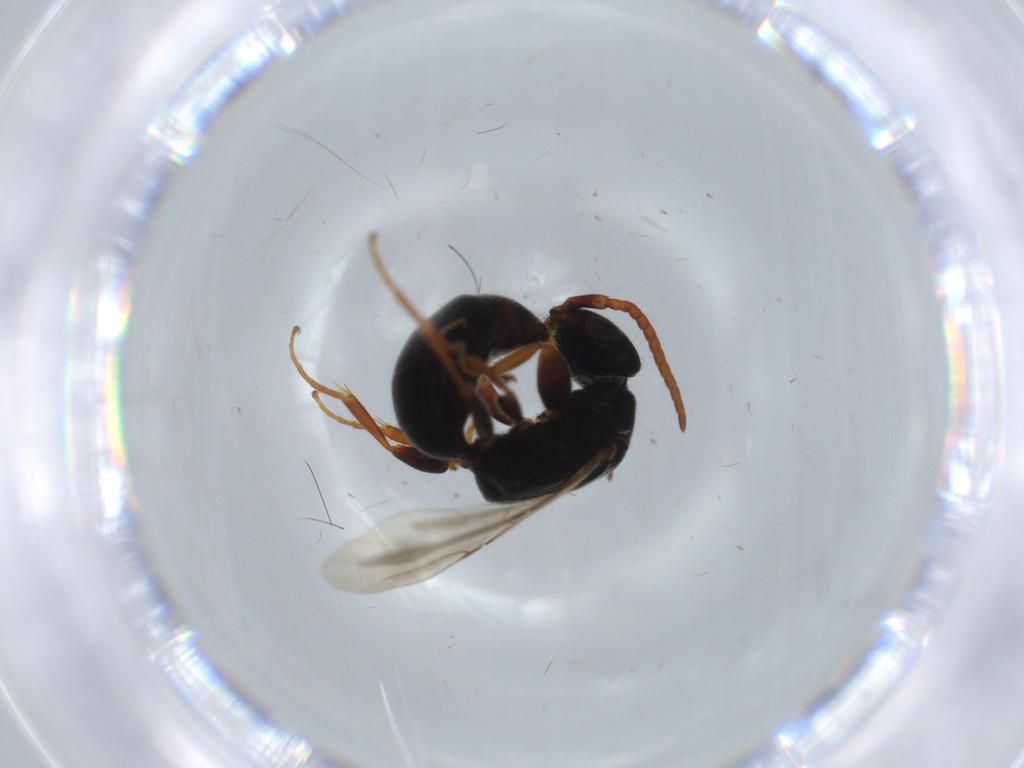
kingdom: Animalia
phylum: Arthropoda
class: Insecta
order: Hymenoptera
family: Bethylidae
